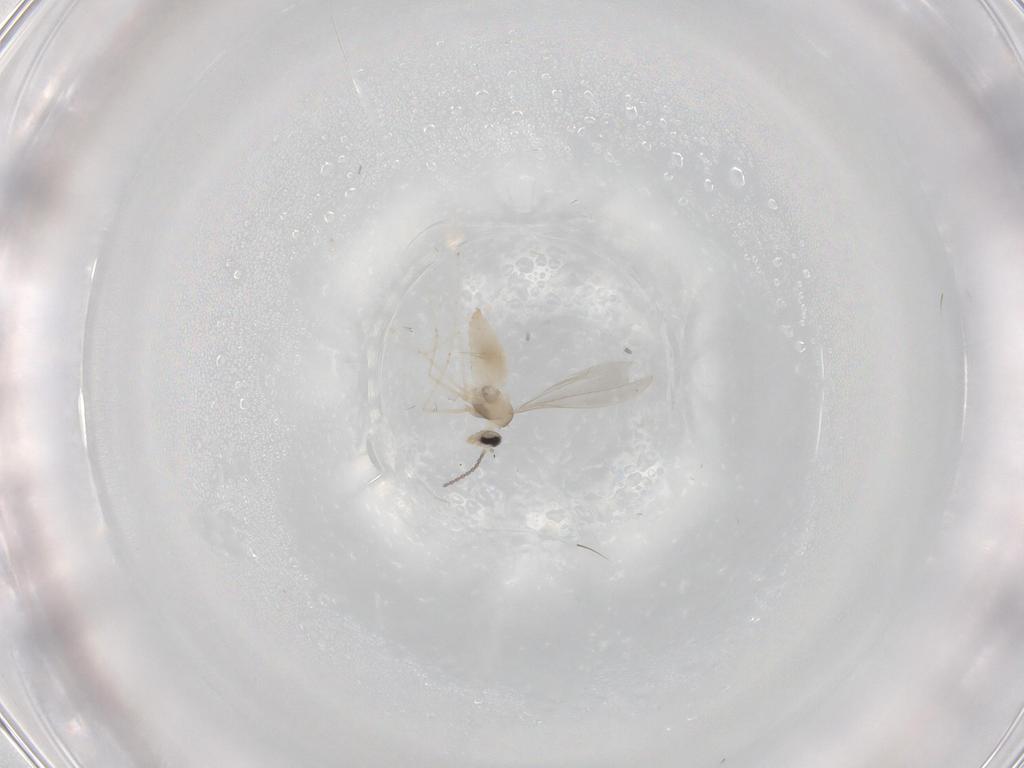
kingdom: Animalia
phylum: Arthropoda
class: Insecta
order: Diptera
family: Cecidomyiidae
